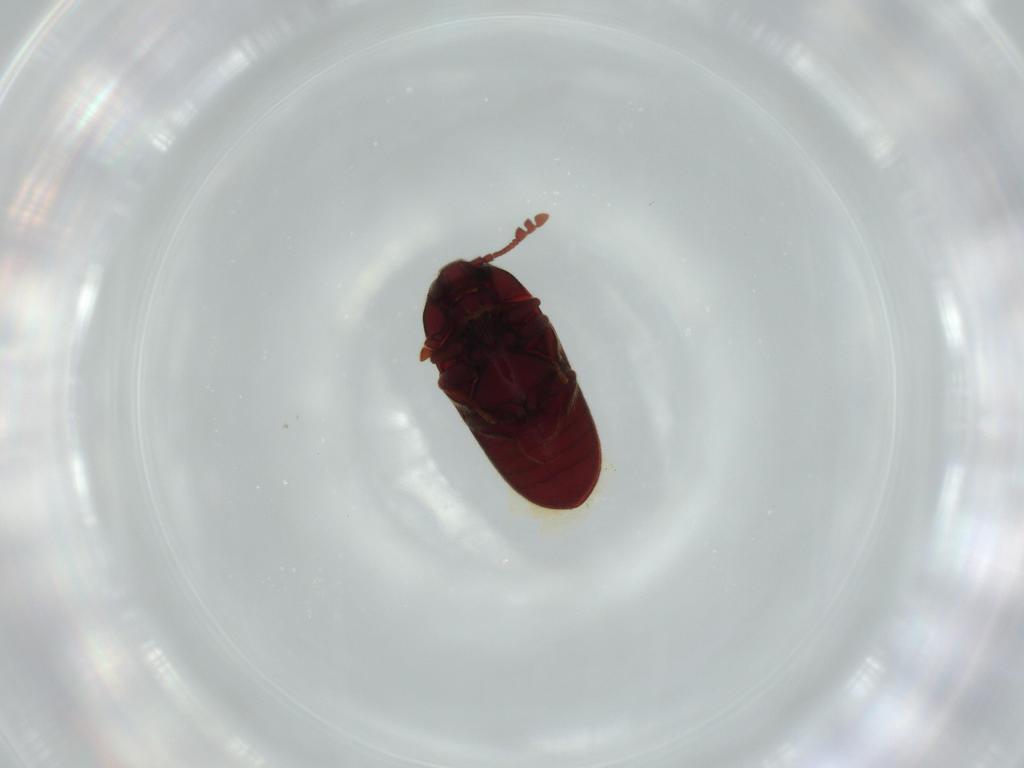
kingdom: Animalia
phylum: Arthropoda
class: Insecta
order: Coleoptera
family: Throscidae
